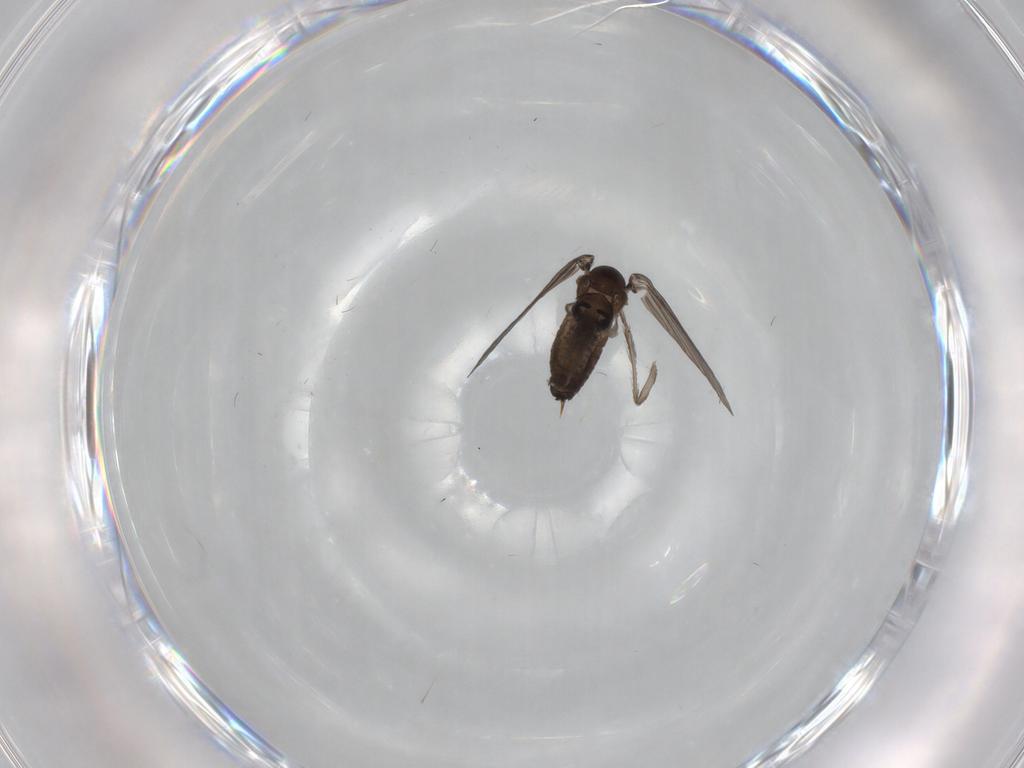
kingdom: Animalia
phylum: Arthropoda
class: Insecta
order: Diptera
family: Psychodidae
